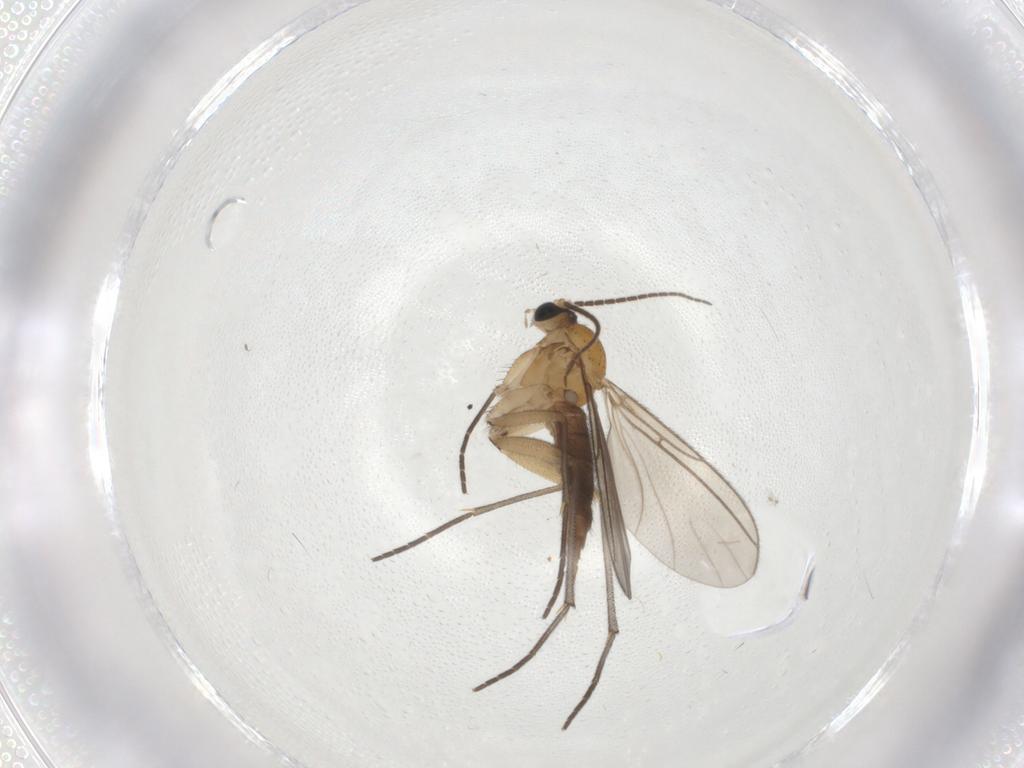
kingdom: Animalia
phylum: Arthropoda
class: Insecta
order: Diptera
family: Sciaridae
